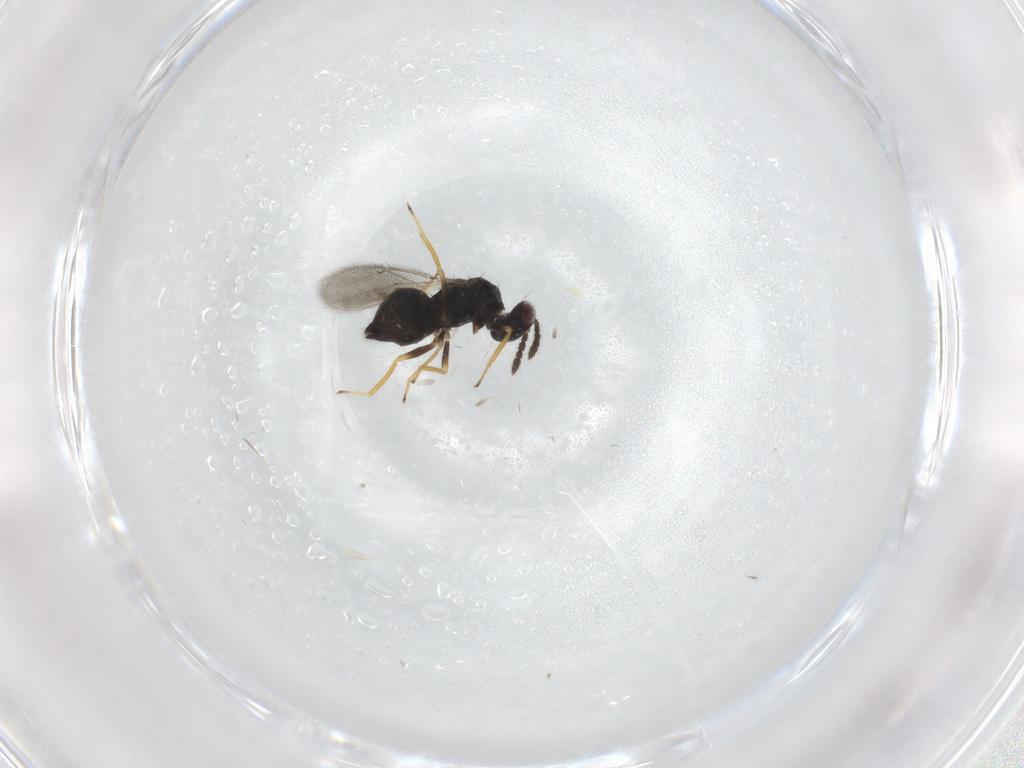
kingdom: Animalia
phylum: Arthropoda
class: Insecta
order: Hymenoptera
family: Eulophidae
